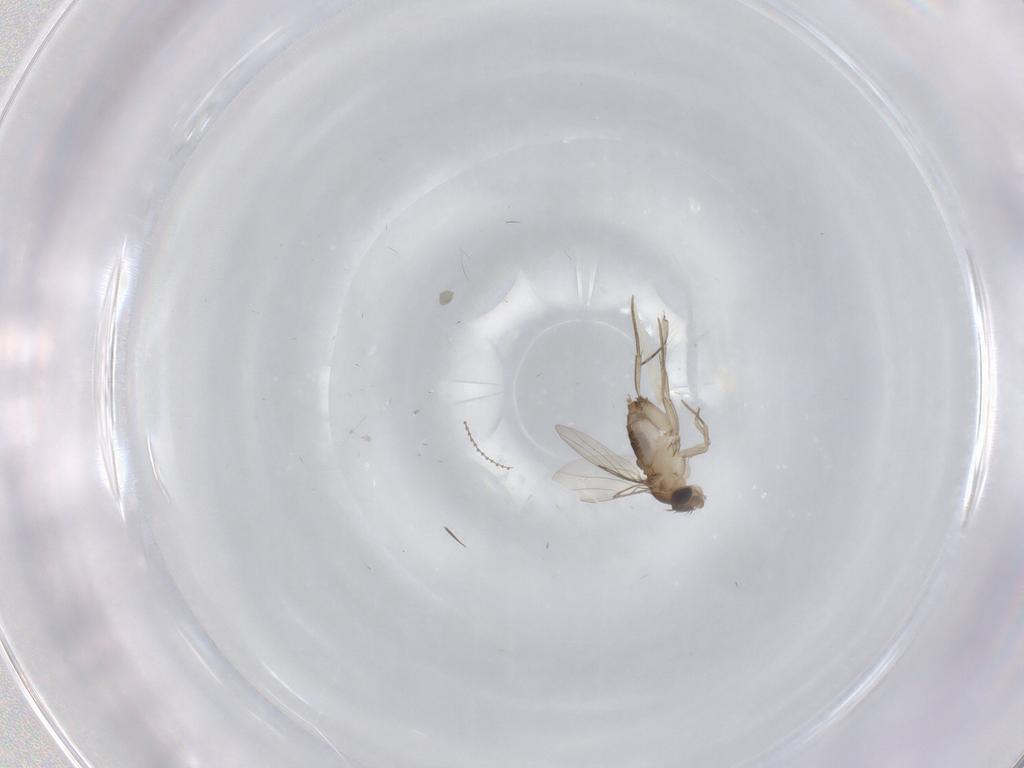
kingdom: Animalia
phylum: Arthropoda
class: Insecta
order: Diptera
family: Phoridae
